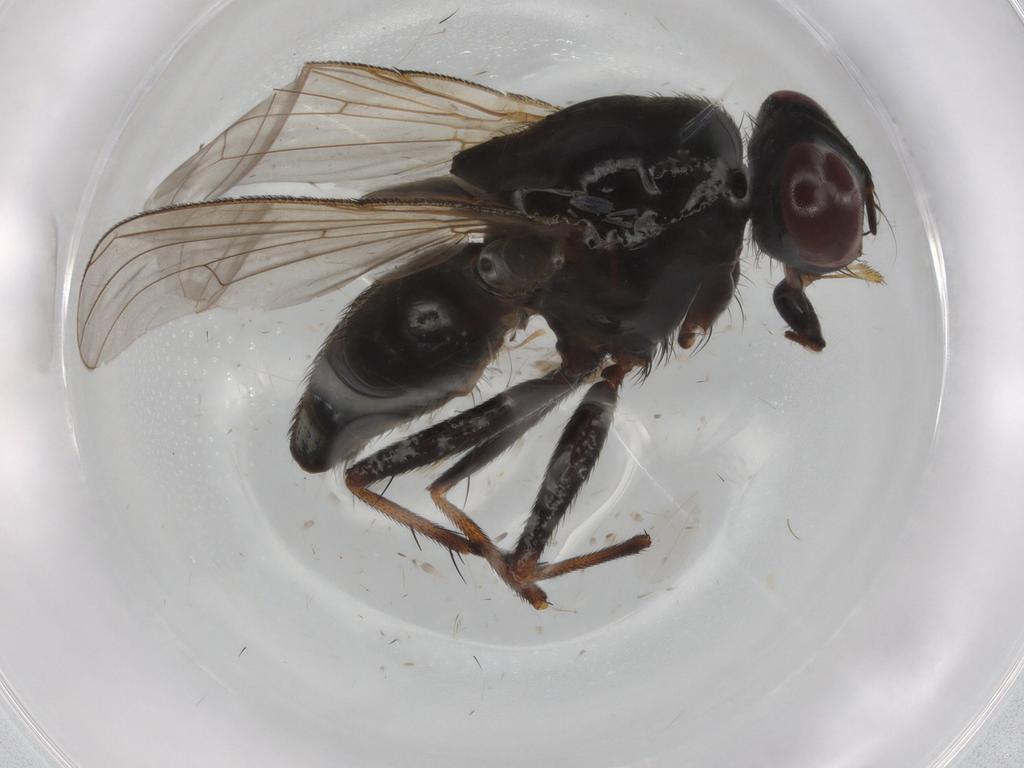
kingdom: Animalia
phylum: Arthropoda
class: Insecta
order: Diptera
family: Muscidae
